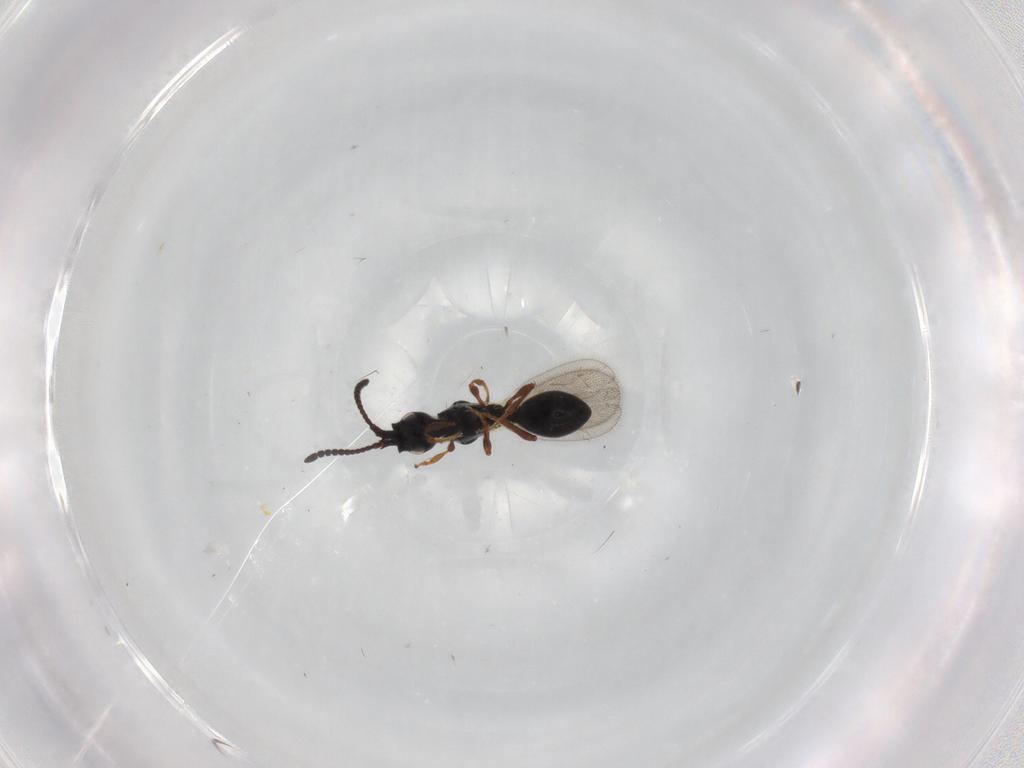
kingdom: Animalia
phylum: Arthropoda
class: Insecta
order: Hymenoptera
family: Diapriidae
